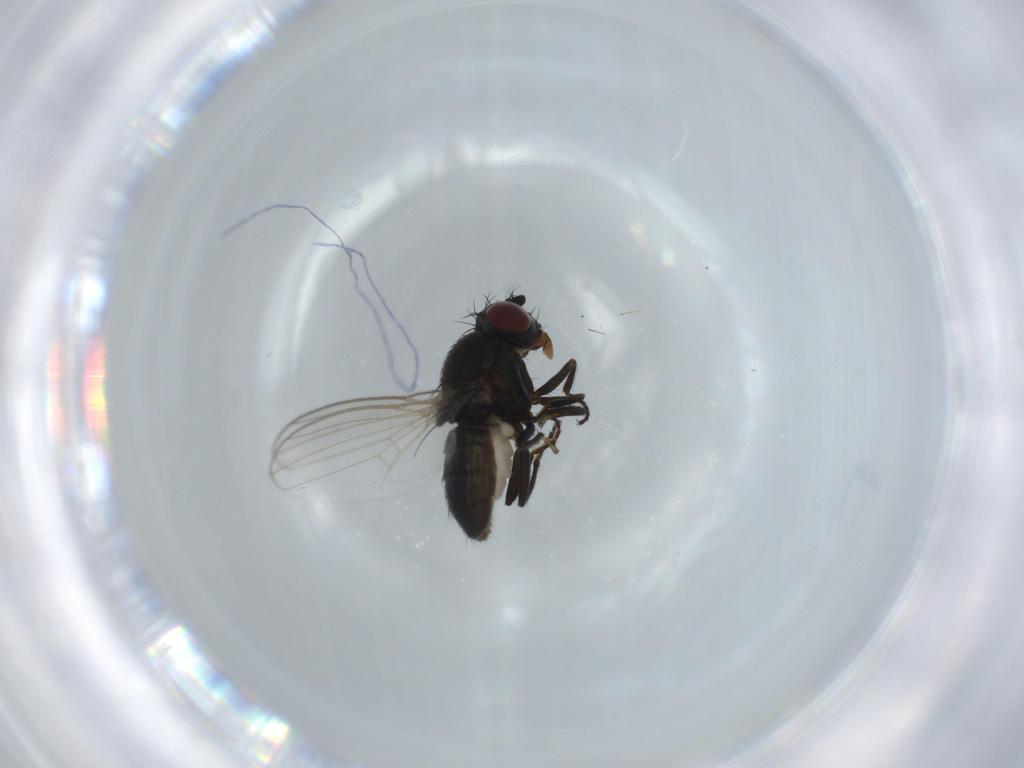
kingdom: Animalia
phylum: Arthropoda
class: Insecta
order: Diptera
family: Ephydridae
